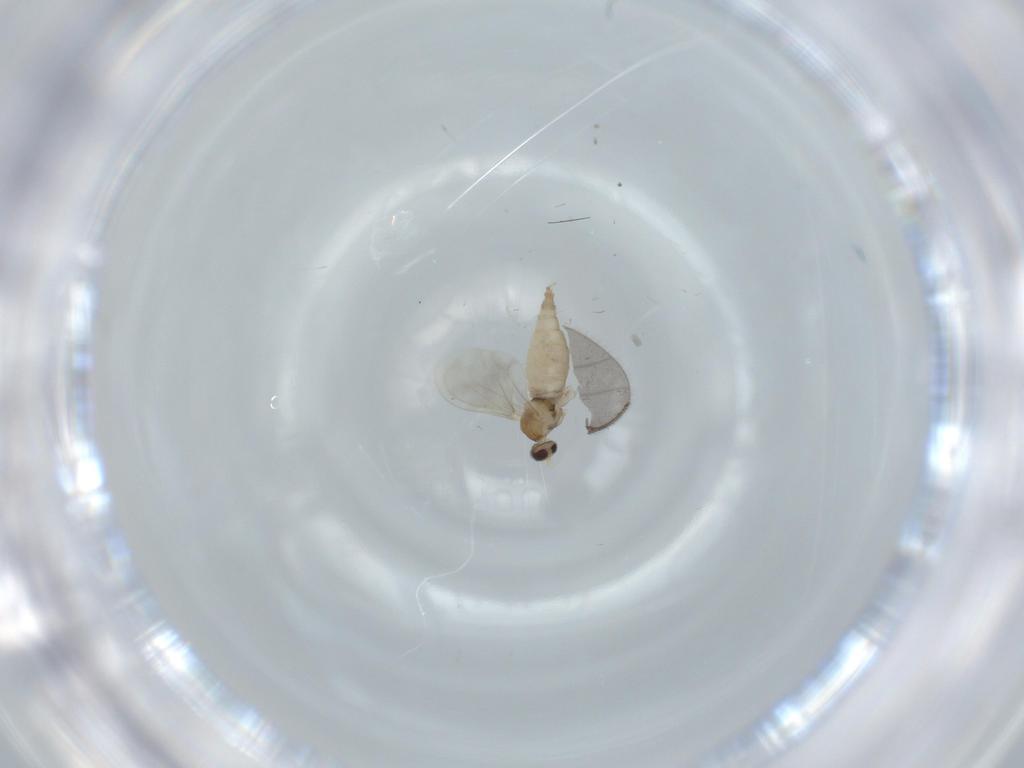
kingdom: Animalia
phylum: Arthropoda
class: Insecta
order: Diptera
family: Cecidomyiidae
